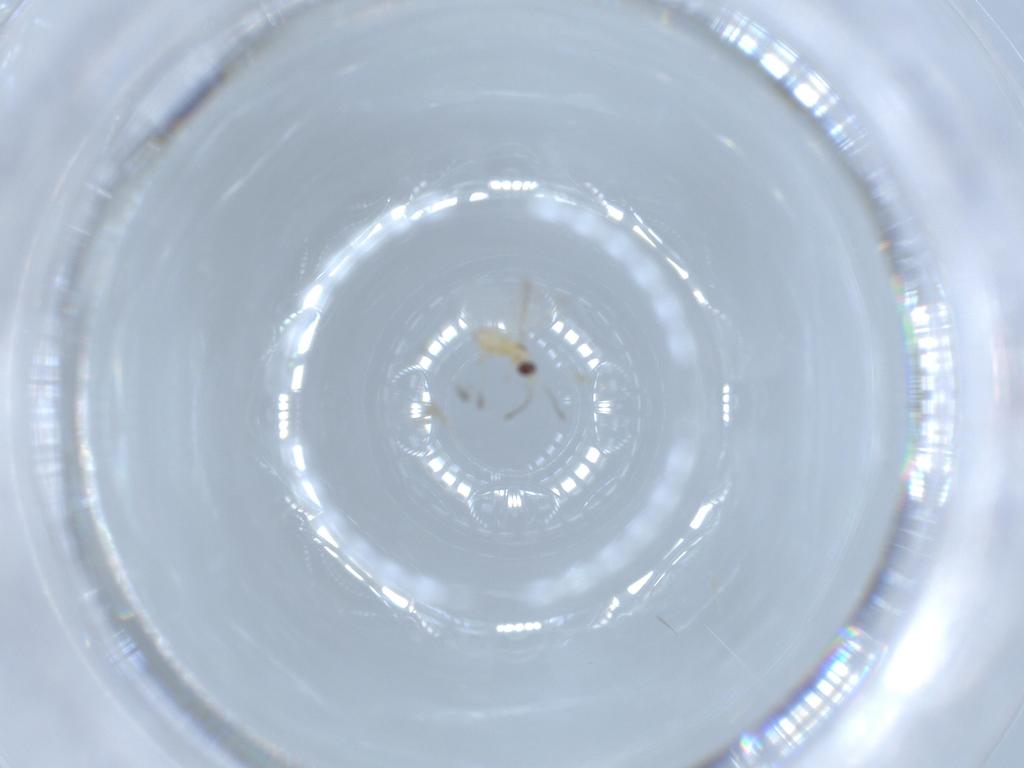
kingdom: Animalia
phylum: Arthropoda
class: Insecta
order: Hymenoptera
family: Mymaridae
